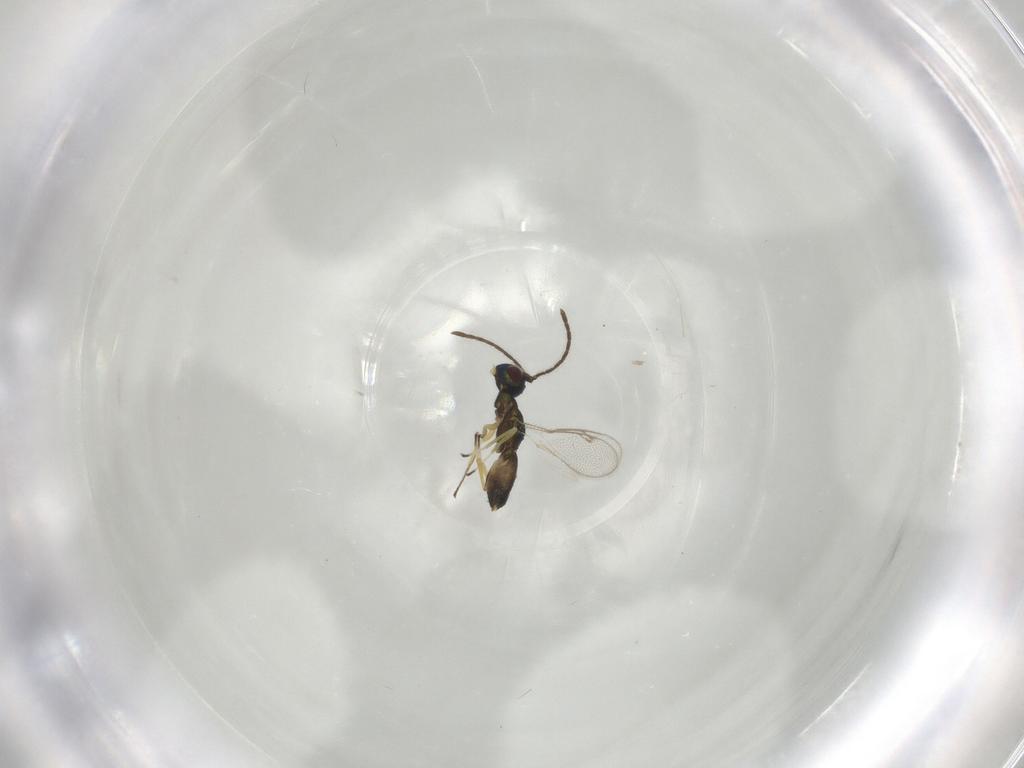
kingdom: Animalia
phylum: Arthropoda
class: Insecta
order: Hymenoptera
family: Eupelmidae
